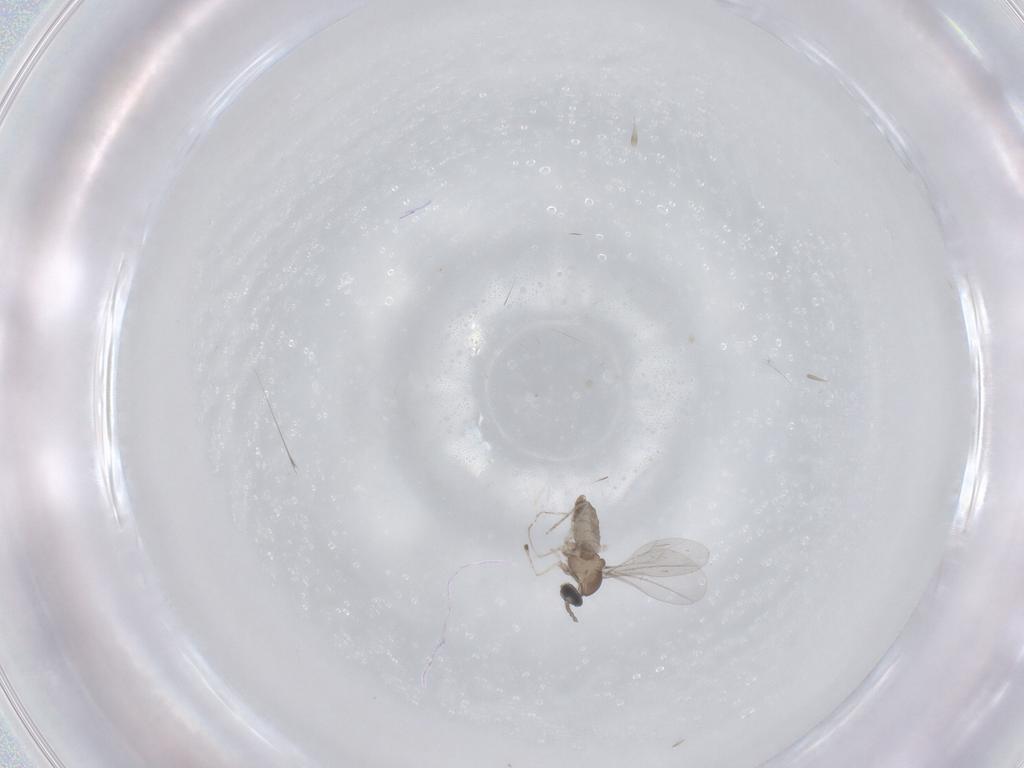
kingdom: Animalia
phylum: Arthropoda
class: Insecta
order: Diptera
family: Cecidomyiidae
